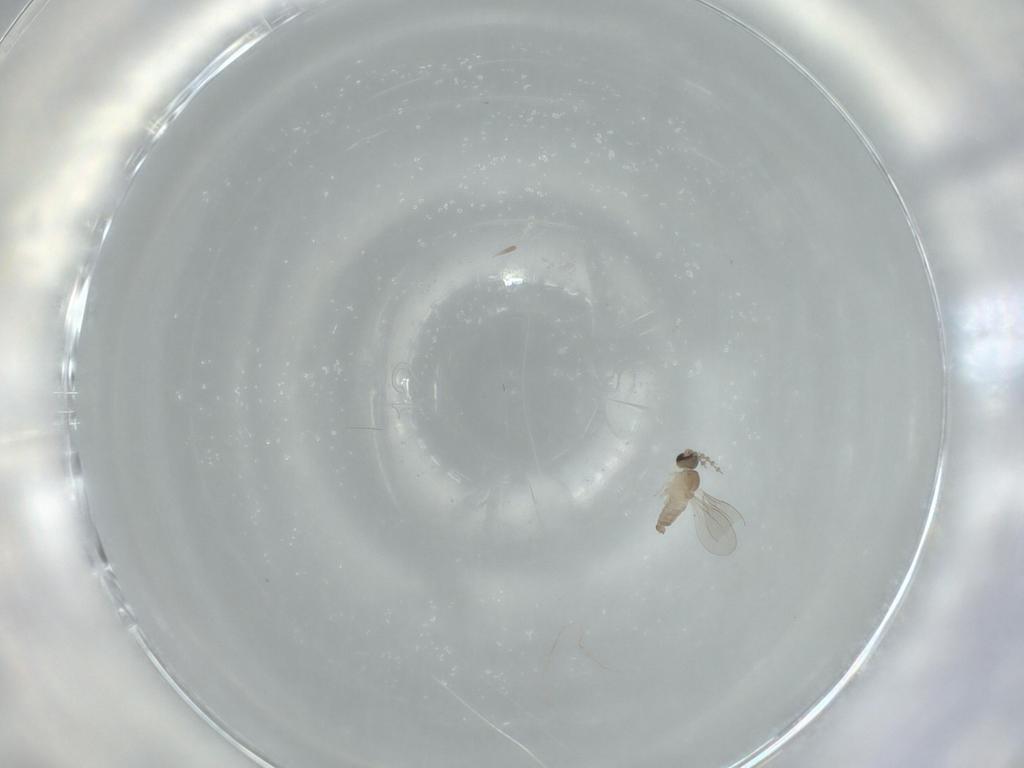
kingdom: Animalia
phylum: Arthropoda
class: Insecta
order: Diptera
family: Cecidomyiidae
